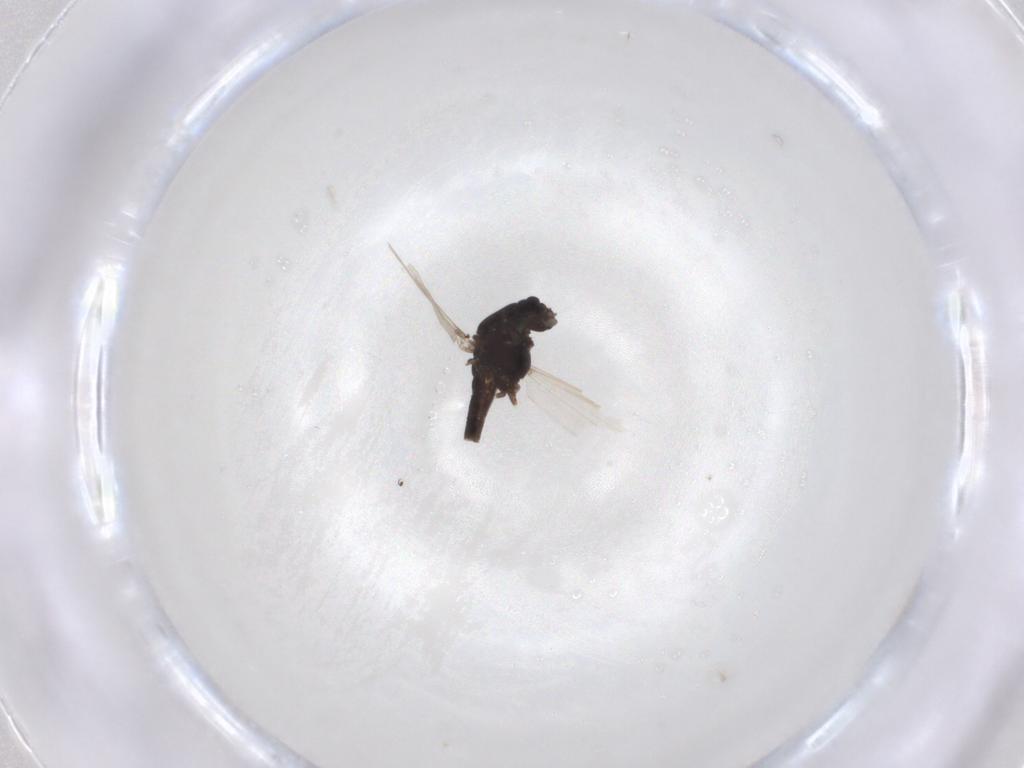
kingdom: Animalia
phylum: Arthropoda
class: Insecta
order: Diptera
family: Chironomidae
